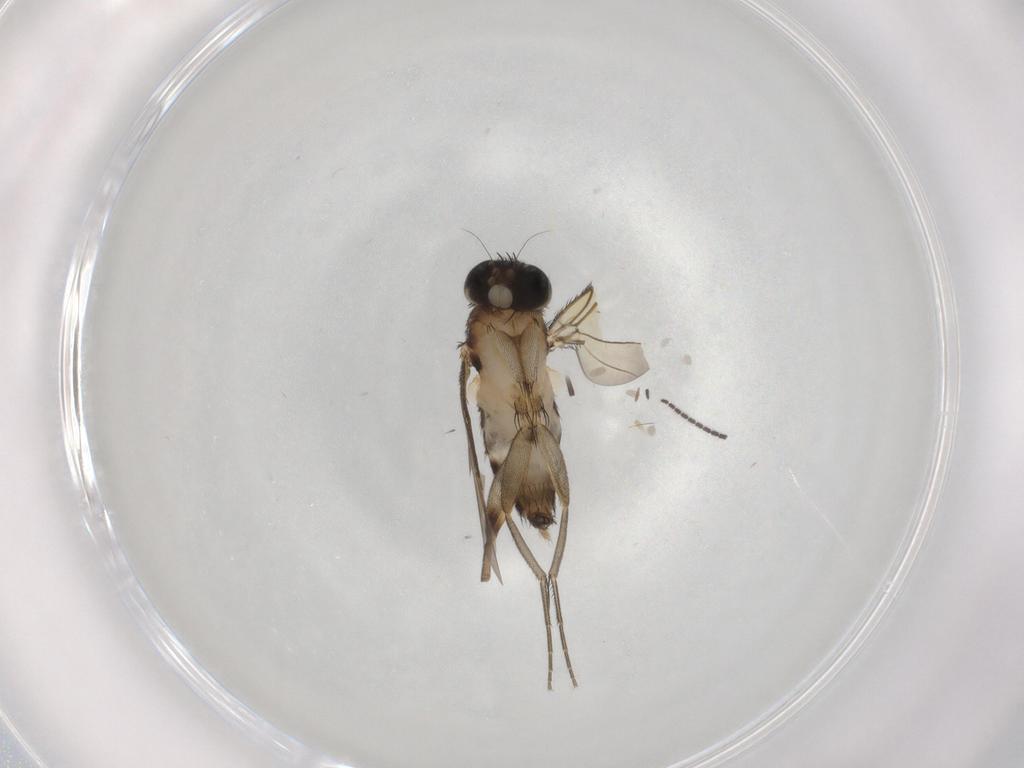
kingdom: Animalia
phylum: Arthropoda
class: Insecta
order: Diptera
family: Phoridae
